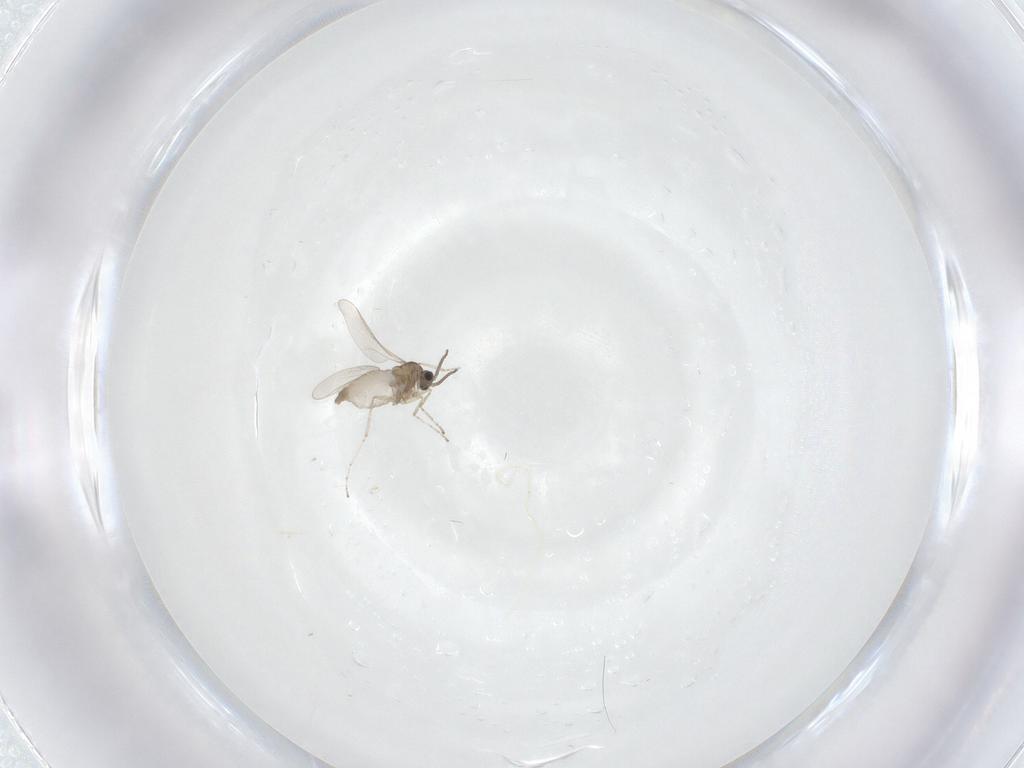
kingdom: Animalia
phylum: Arthropoda
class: Insecta
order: Diptera
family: Cecidomyiidae
